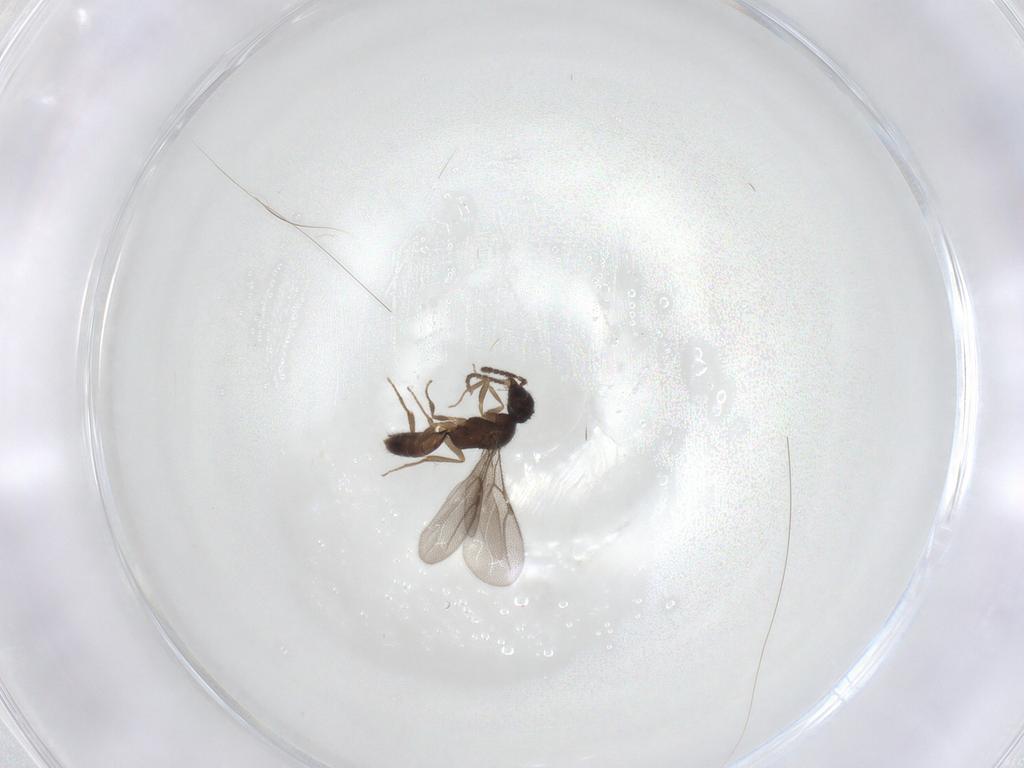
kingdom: Animalia
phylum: Arthropoda
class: Insecta
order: Hymenoptera
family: Bethylidae
